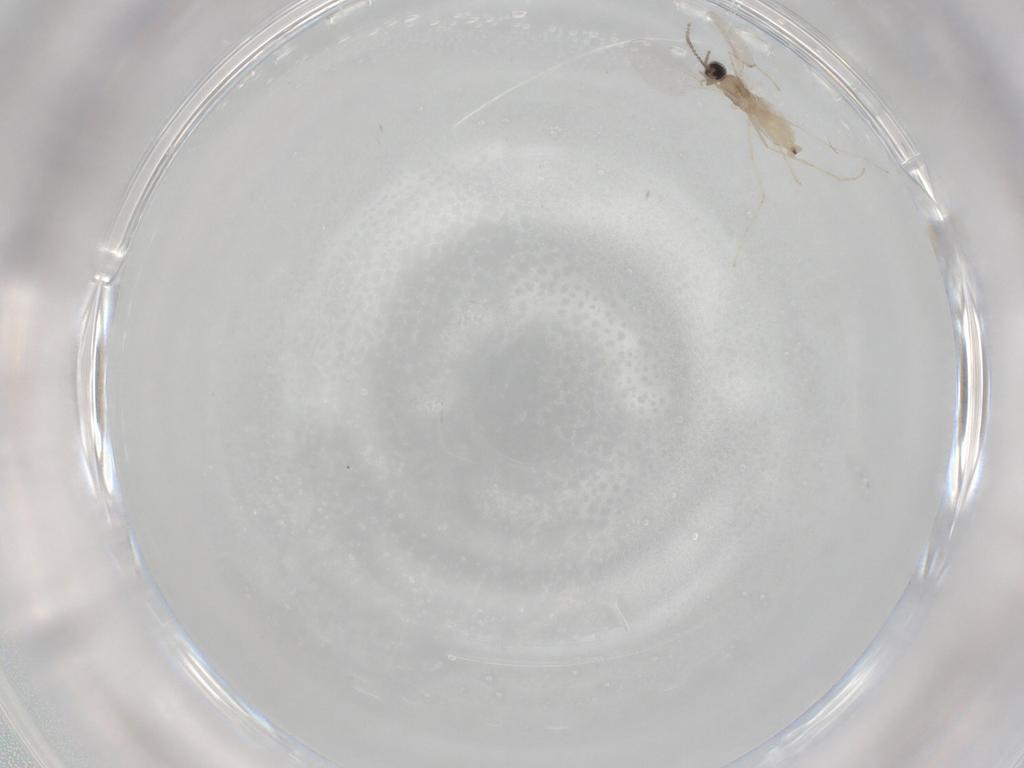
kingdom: Animalia
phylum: Arthropoda
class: Insecta
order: Diptera
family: Cecidomyiidae
